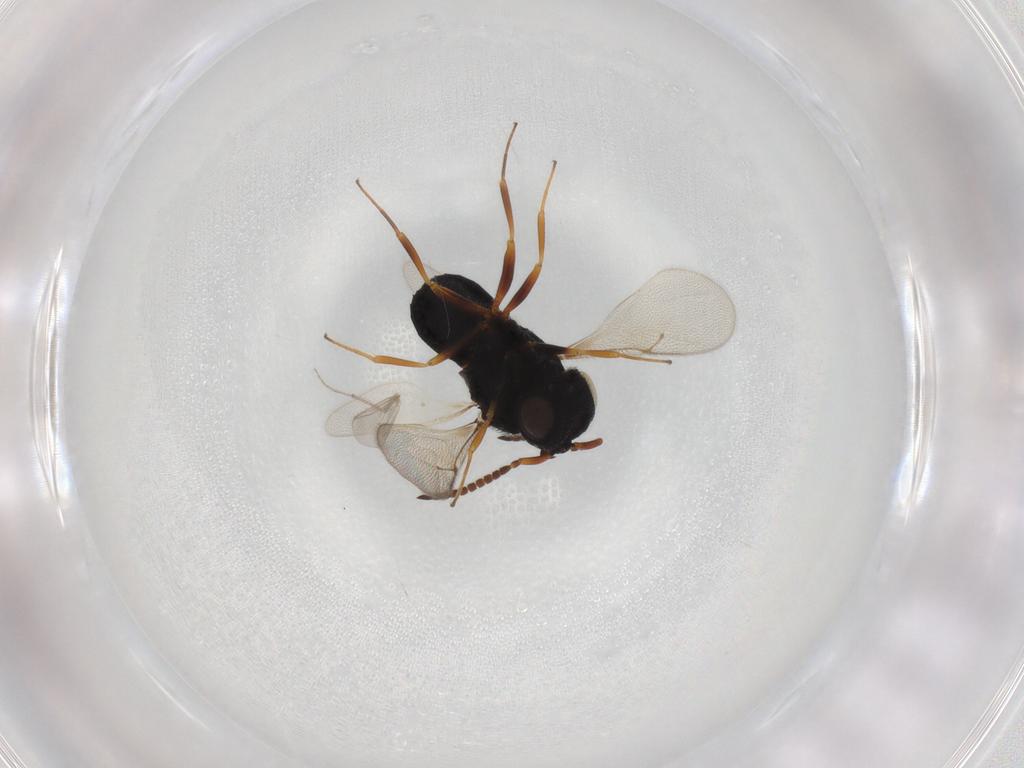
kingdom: Animalia
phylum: Arthropoda
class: Insecta
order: Hymenoptera
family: Scelionidae
